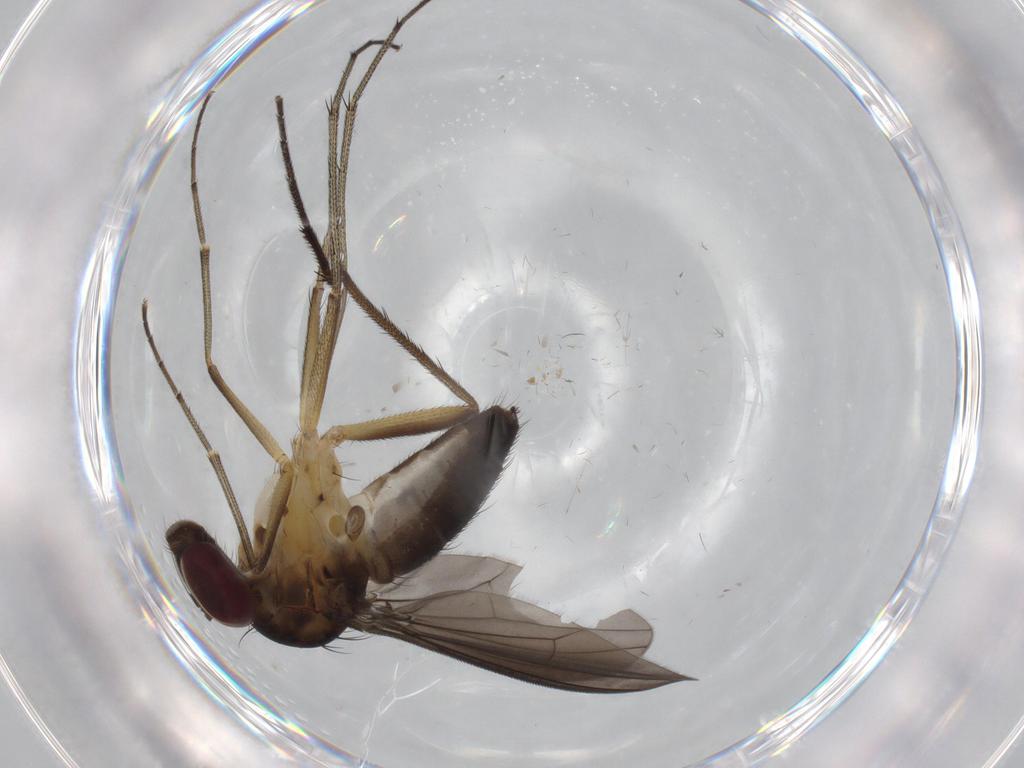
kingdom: Animalia
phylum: Arthropoda
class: Insecta
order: Diptera
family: Dolichopodidae
